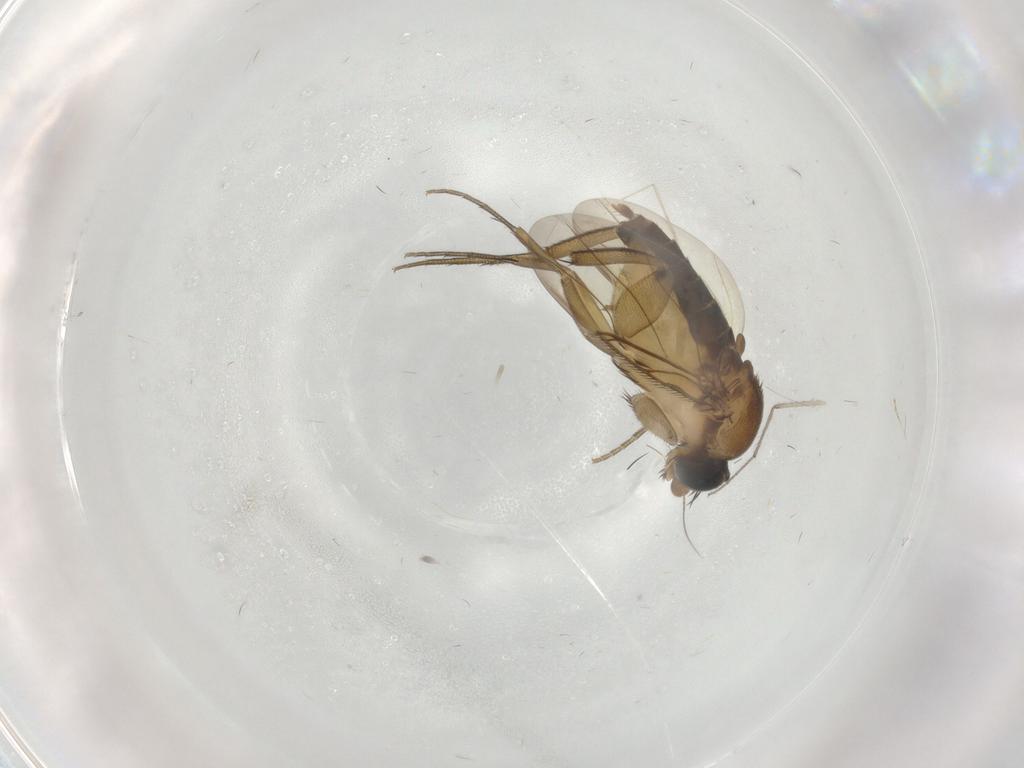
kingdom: Animalia
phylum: Arthropoda
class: Insecta
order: Diptera
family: Chironomidae
